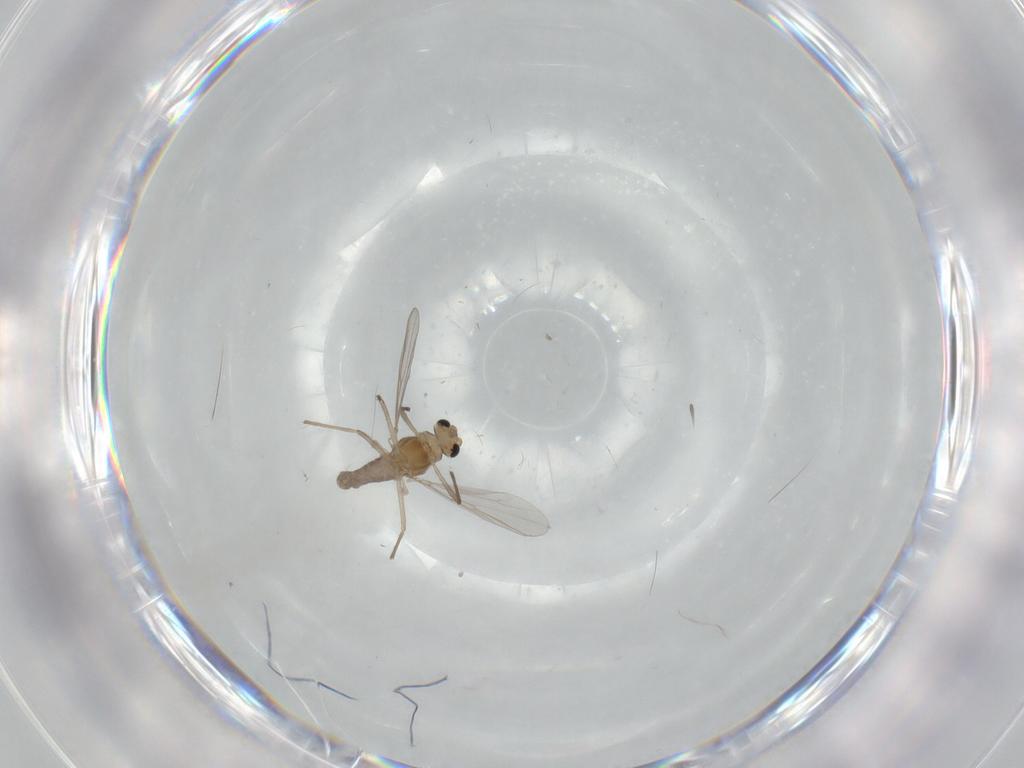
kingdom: Animalia
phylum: Arthropoda
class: Insecta
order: Diptera
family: Chironomidae
